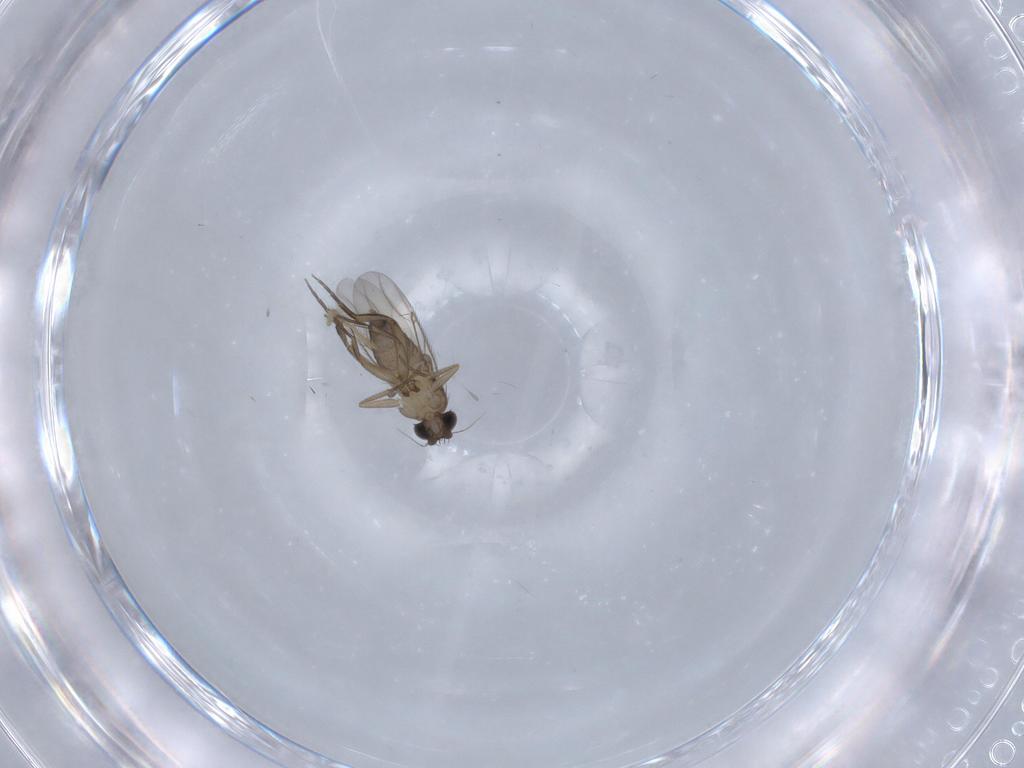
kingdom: Animalia
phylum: Arthropoda
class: Insecta
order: Diptera
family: Phoridae
